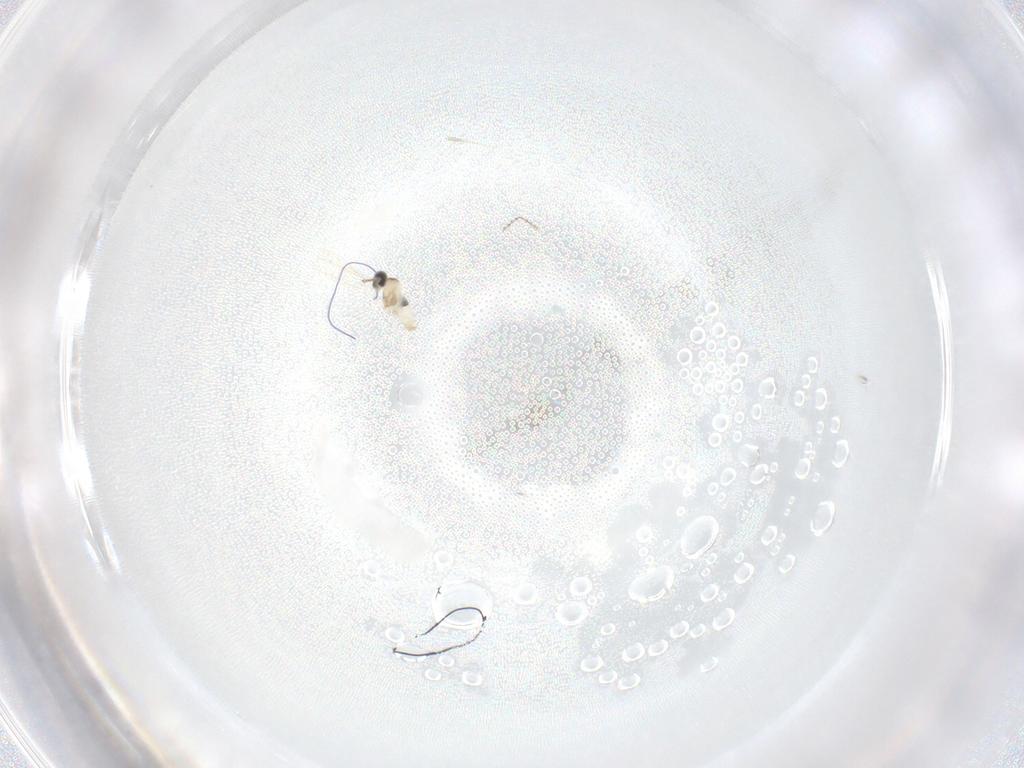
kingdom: Animalia
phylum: Arthropoda
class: Insecta
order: Diptera
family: Cecidomyiidae
